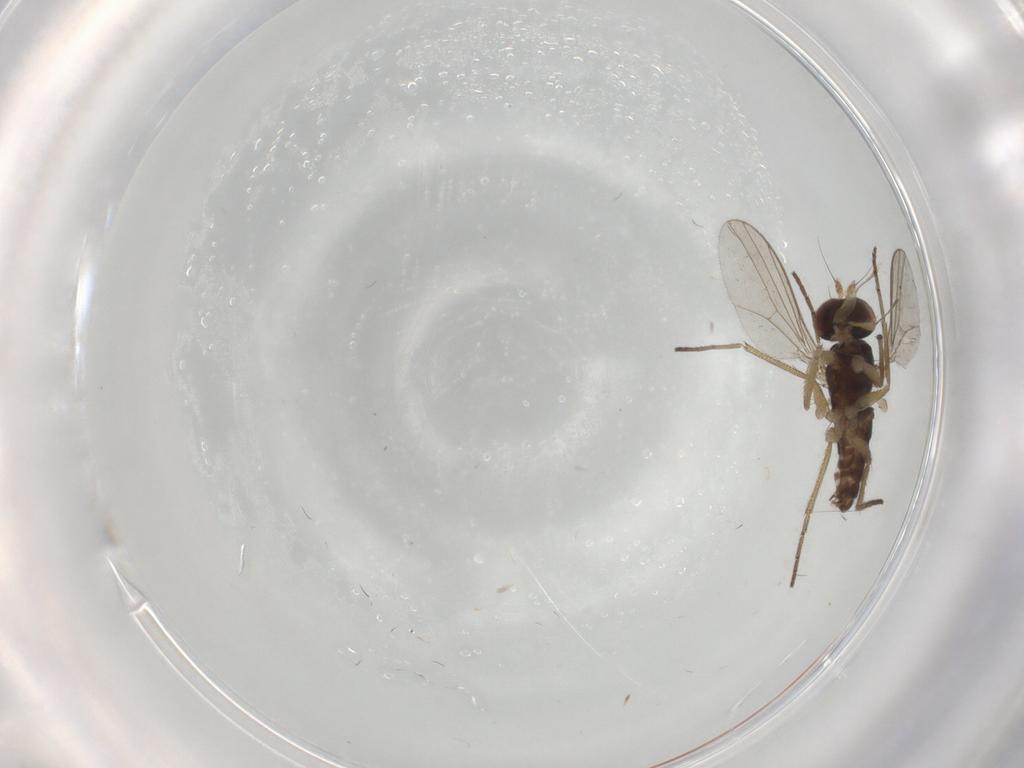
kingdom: Animalia
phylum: Arthropoda
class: Insecta
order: Diptera
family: Dolichopodidae
